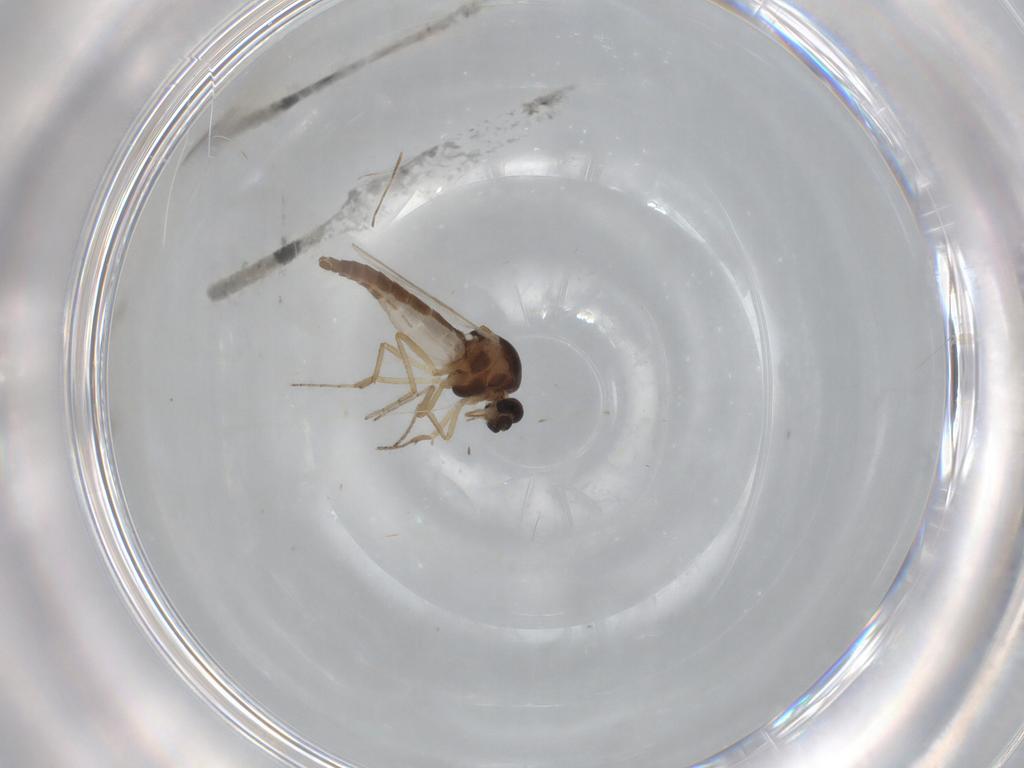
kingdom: Animalia
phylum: Arthropoda
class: Insecta
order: Diptera
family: Ceratopogonidae
